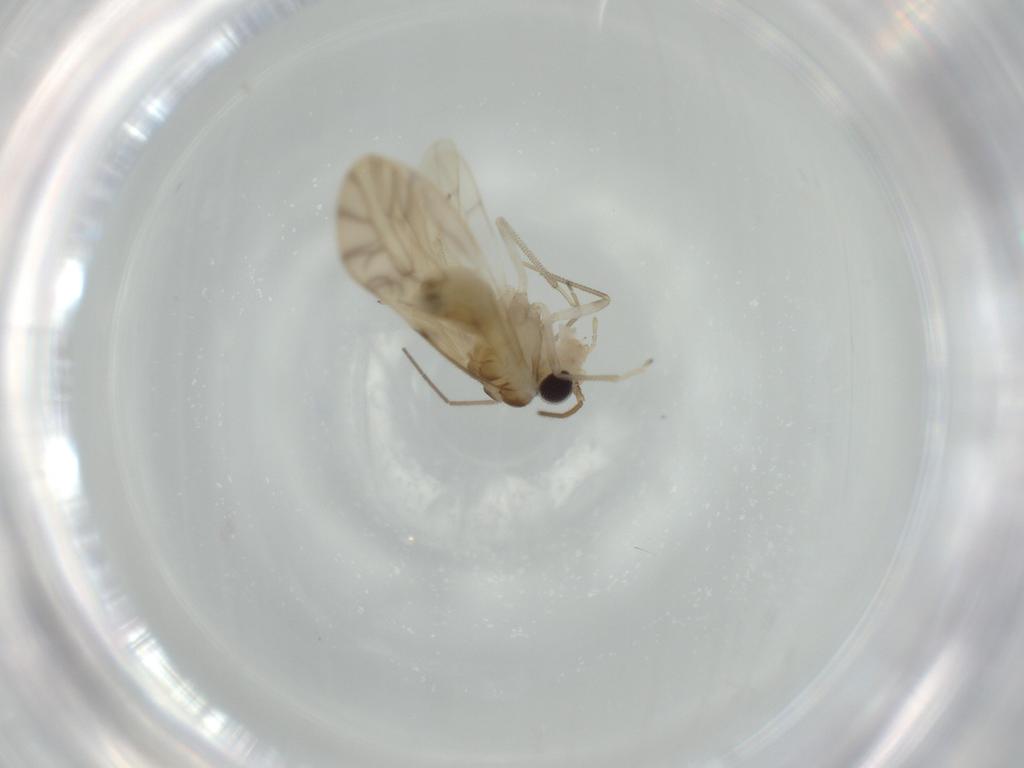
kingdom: Animalia
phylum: Arthropoda
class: Insecta
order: Psocodea
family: Caeciliusidae
